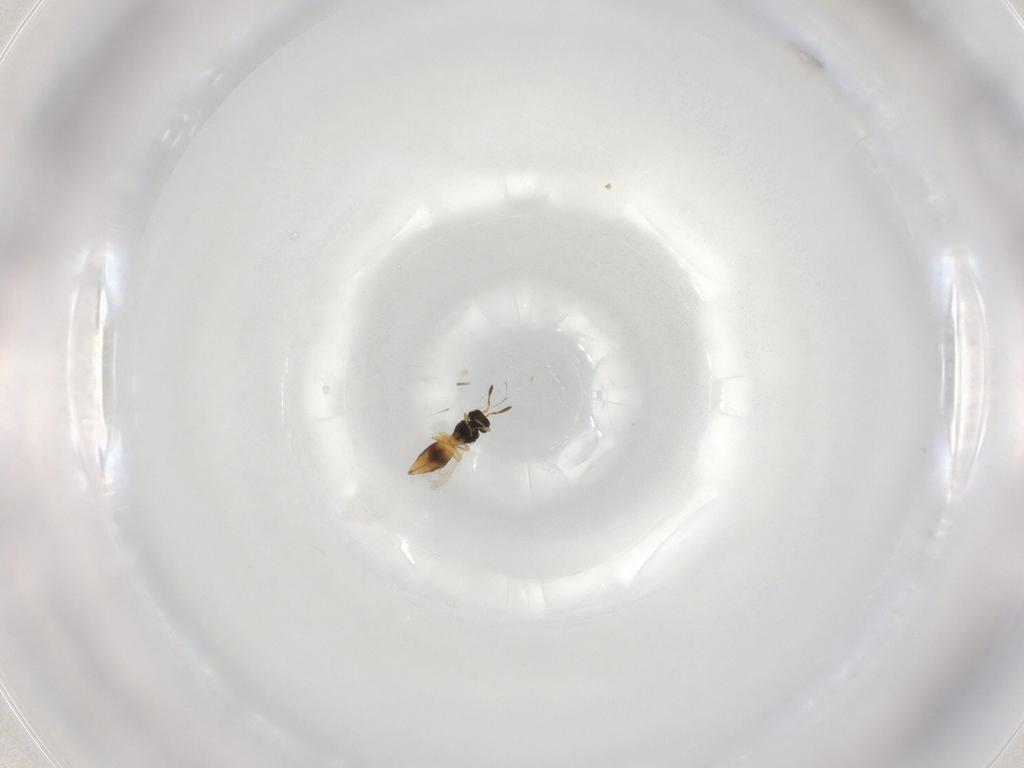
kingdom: Animalia
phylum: Arthropoda
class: Insecta
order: Hymenoptera
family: Scelionidae
